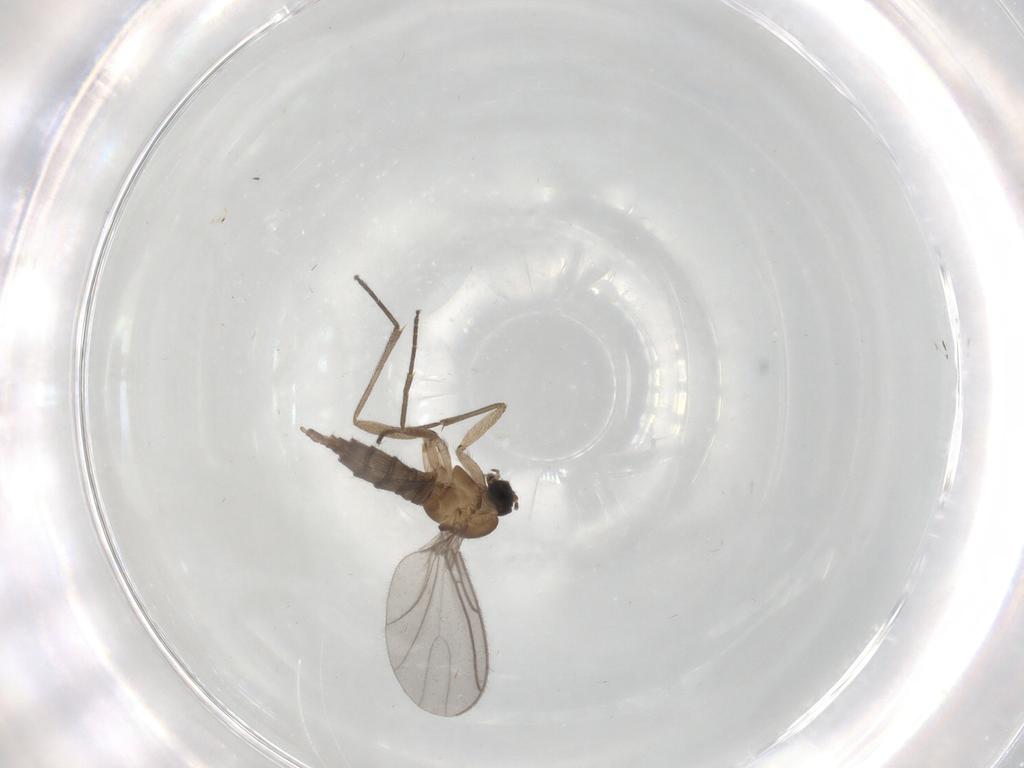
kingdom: Animalia
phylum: Arthropoda
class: Insecta
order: Diptera
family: Sciaridae
